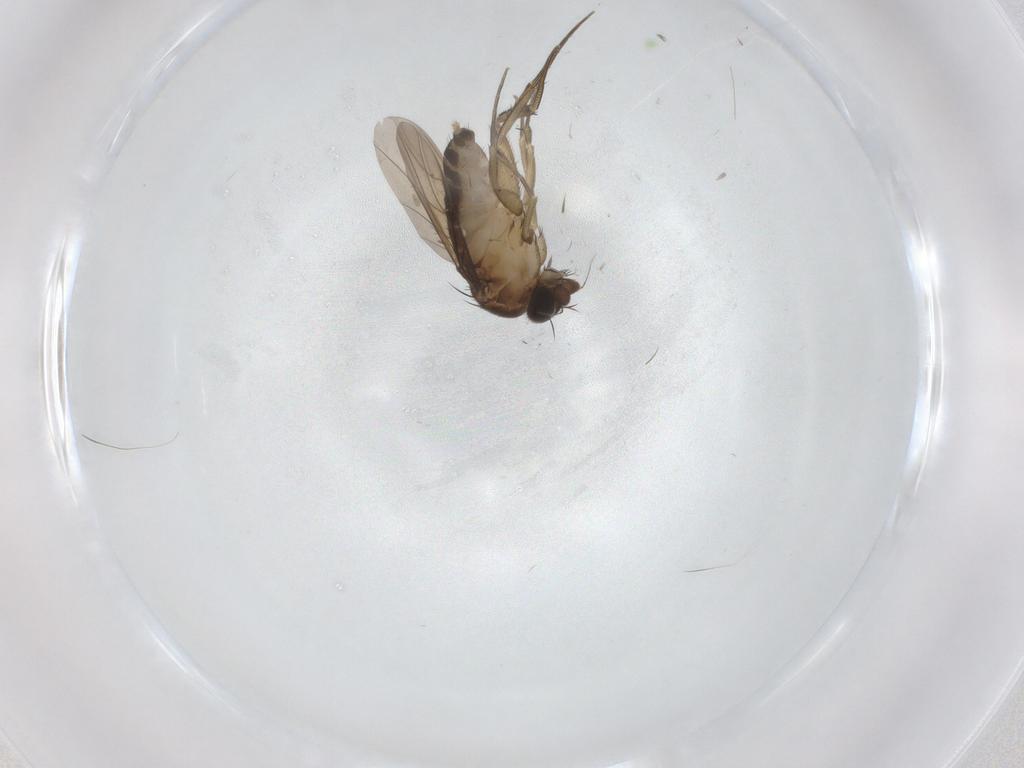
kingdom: Animalia
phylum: Arthropoda
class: Insecta
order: Diptera
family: Phoridae
